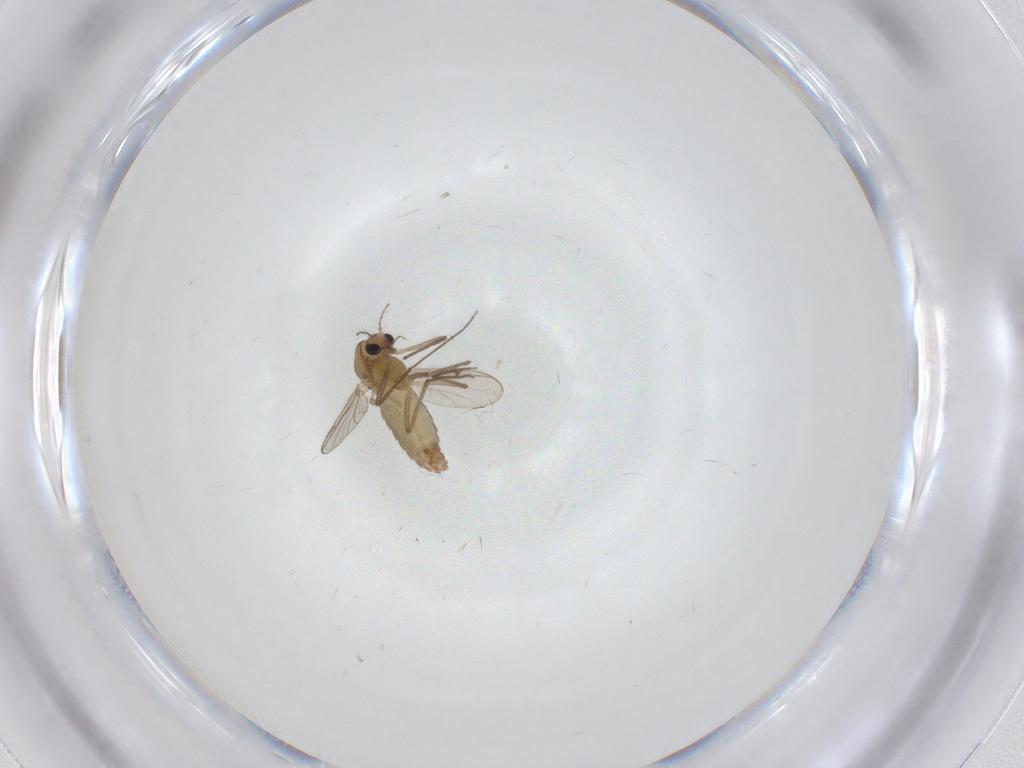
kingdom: Animalia
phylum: Arthropoda
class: Insecta
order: Diptera
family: Chironomidae
